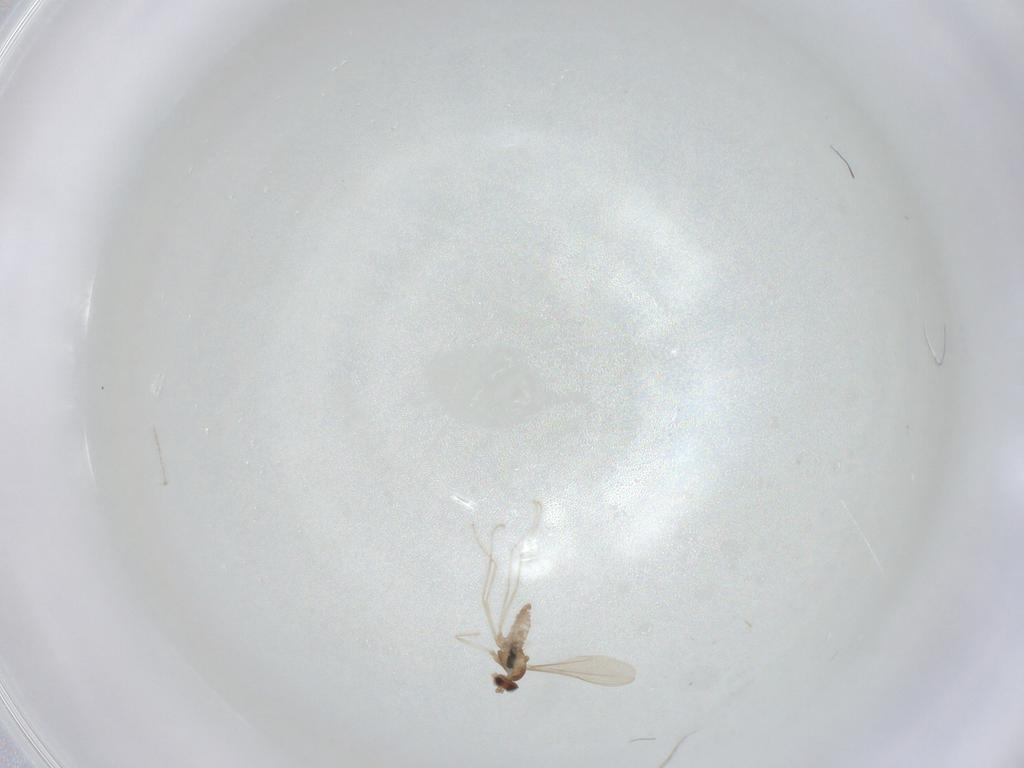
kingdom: Animalia
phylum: Arthropoda
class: Insecta
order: Diptera
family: Cecidomyiidae
